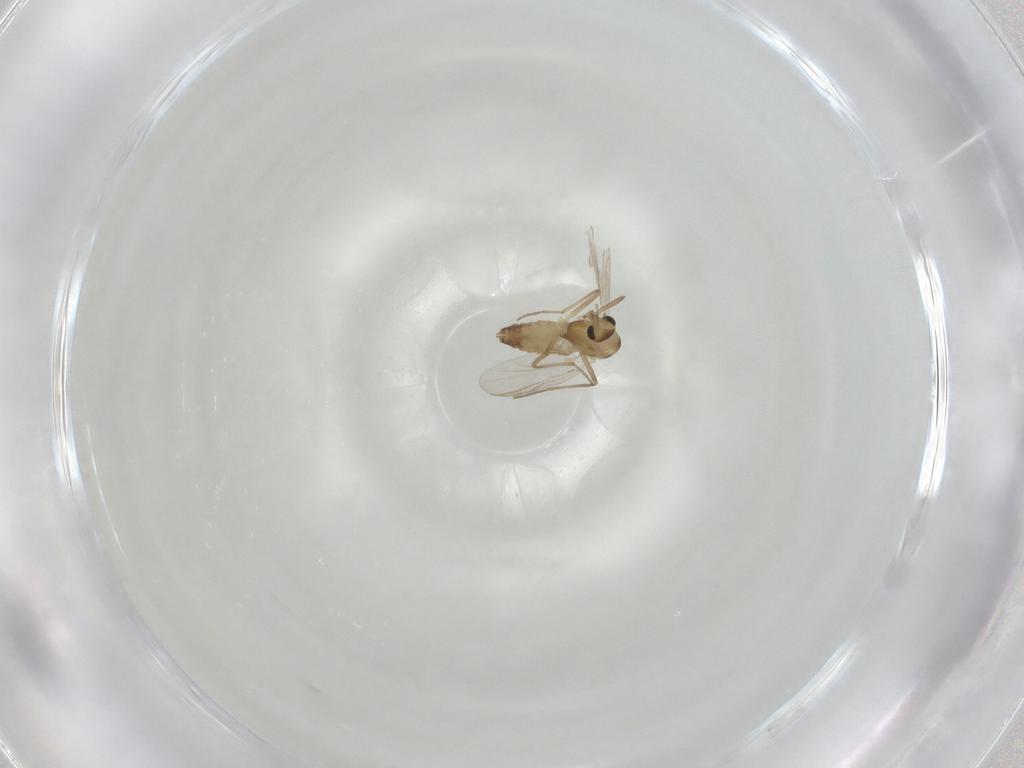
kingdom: Animalia
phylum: Arthropoda
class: Insecta
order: Diptera
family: Chironomidae
